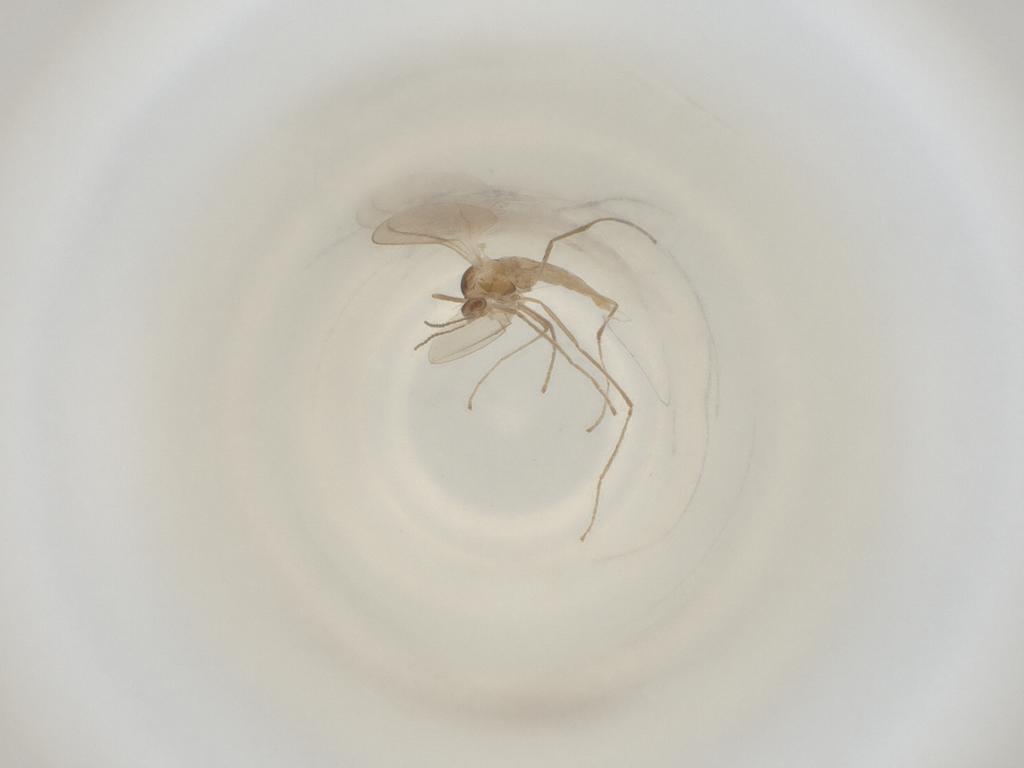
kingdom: Animalia
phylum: Arthropoda
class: Insecta
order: Diptera
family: Cecidomyiidae
